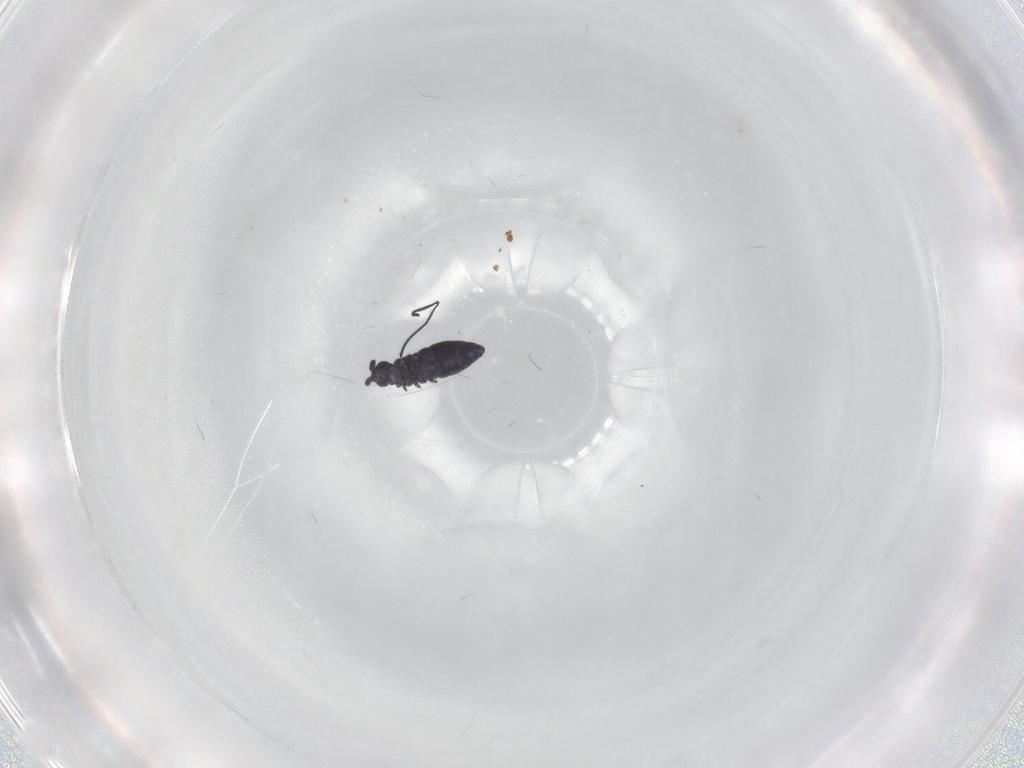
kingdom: Animalia
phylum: Arthropoda
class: Collembola
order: Poduromorpha
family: Hypogastruridae
